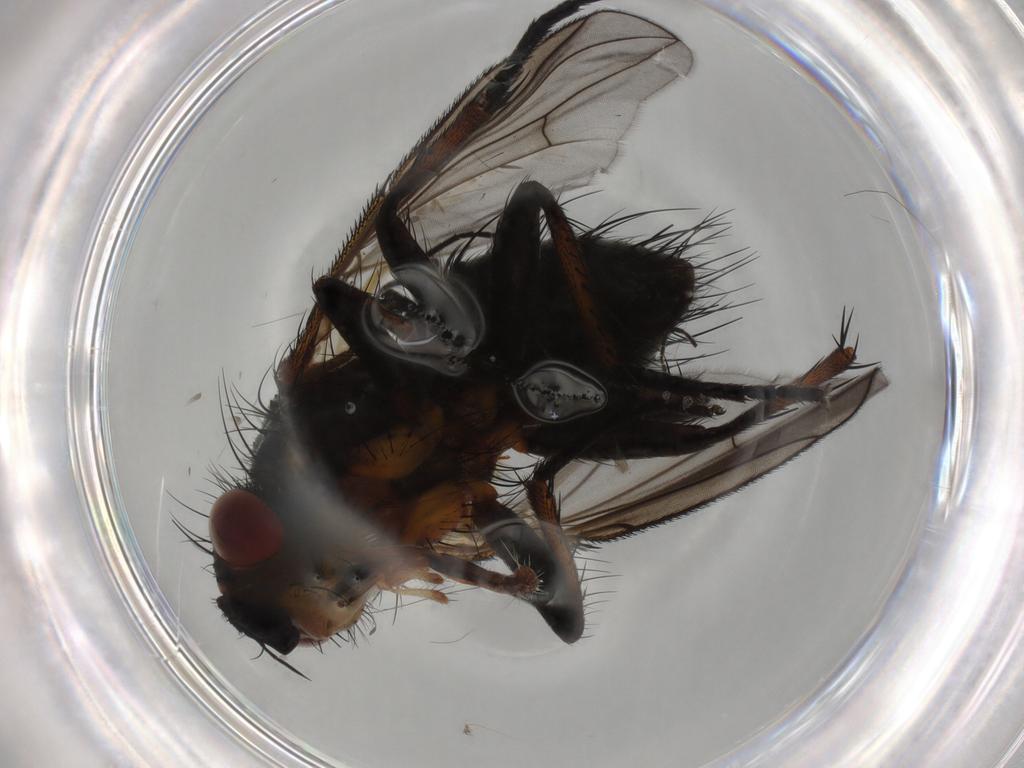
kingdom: Animalia
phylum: Arthropoda
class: Insecta
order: Diptera
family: Tachinidae
